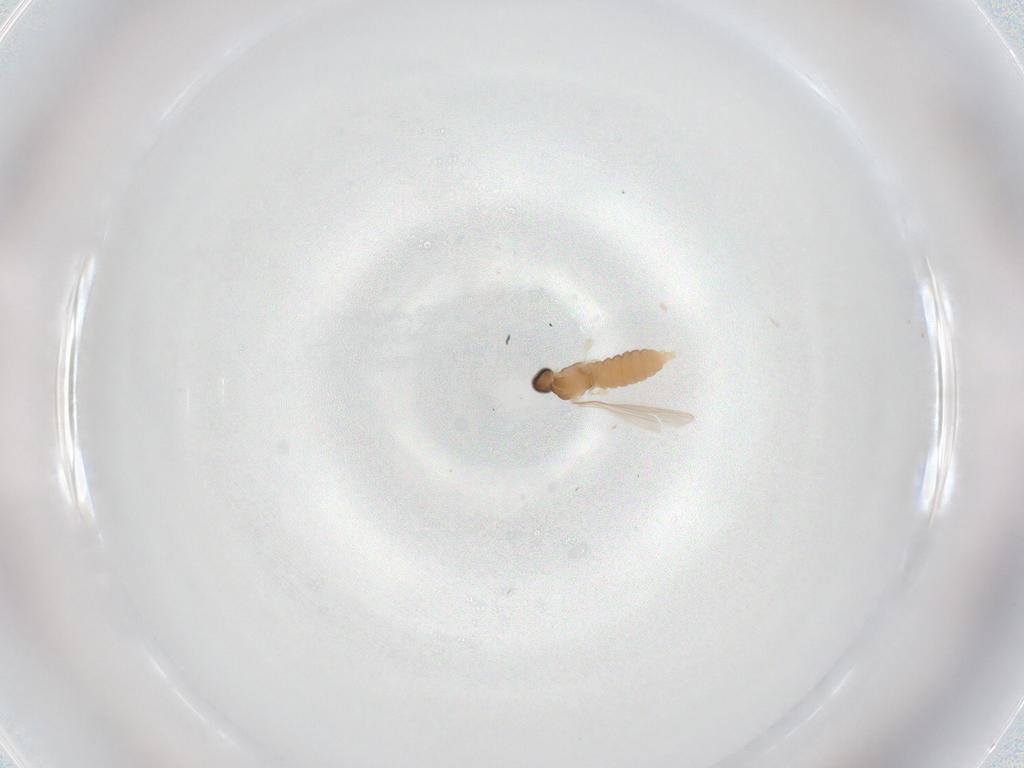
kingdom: Animalia
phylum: Arthropoda
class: Insecta
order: Diptera
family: Cecidomyiidae
